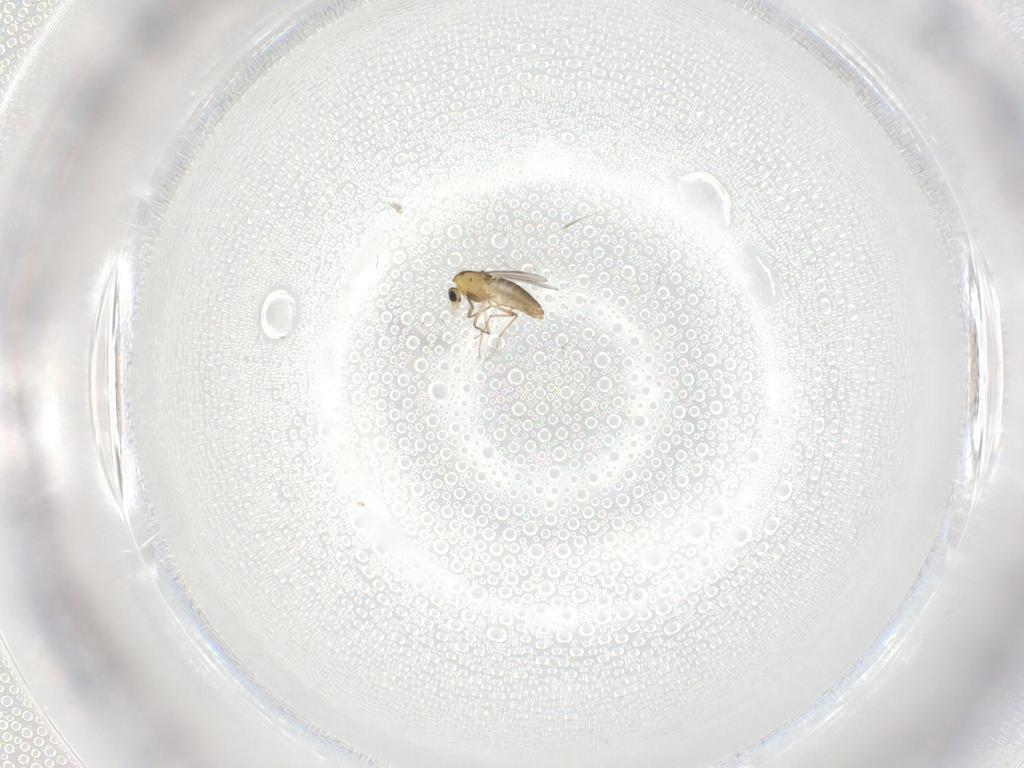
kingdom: Animalia
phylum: Arthropoda
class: Insecta
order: Diptera
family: Chironomidae
